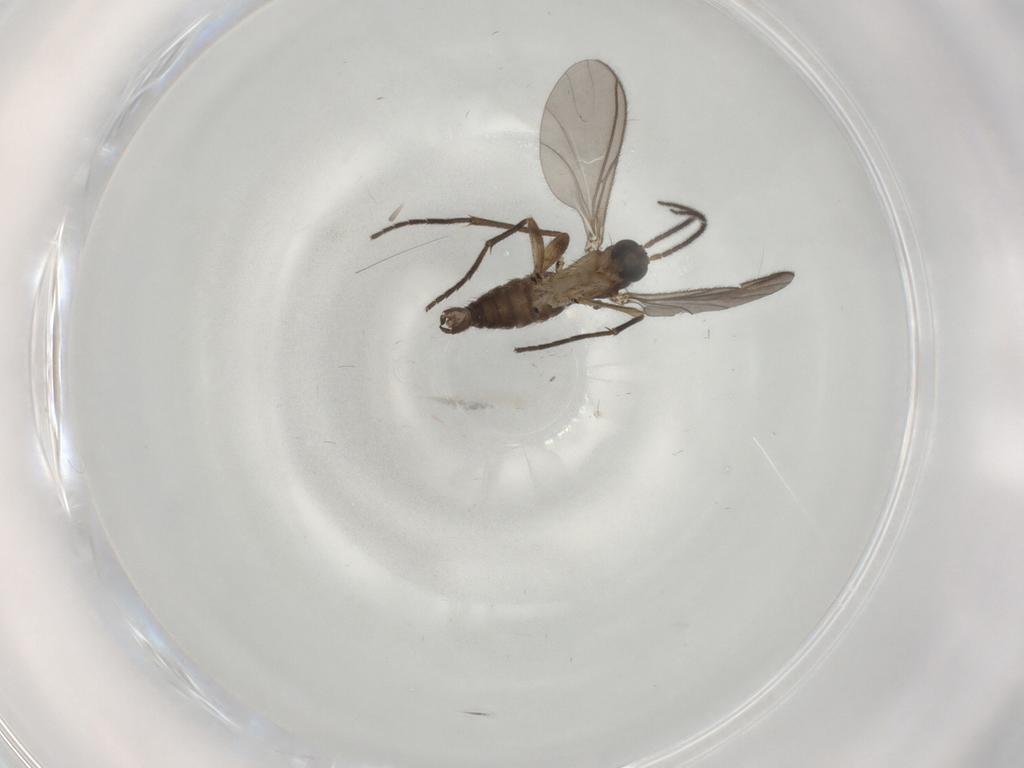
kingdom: Animalia
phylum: Arthropoda
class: Insecta
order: Diptera
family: Sciaridae
